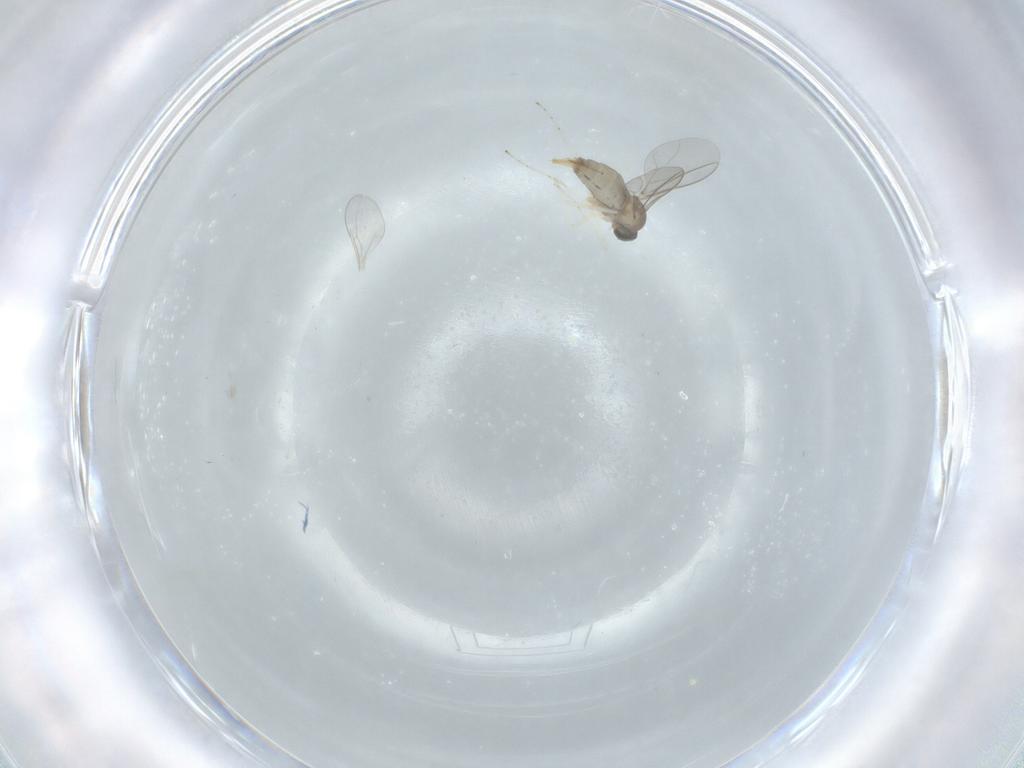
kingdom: Animalia
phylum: Arthropoda
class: Insecta
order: Diptera
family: Cecidomyiidae
